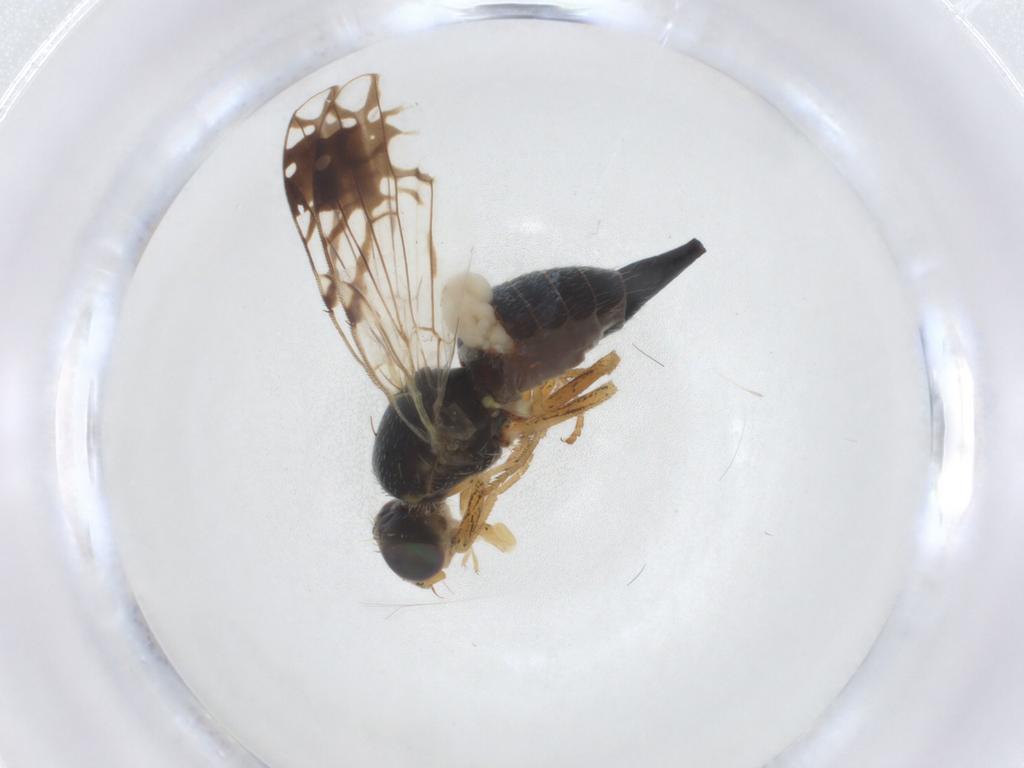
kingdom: Animalia
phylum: Arthropoda
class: Insecta
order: Diptera
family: Tephritidae
